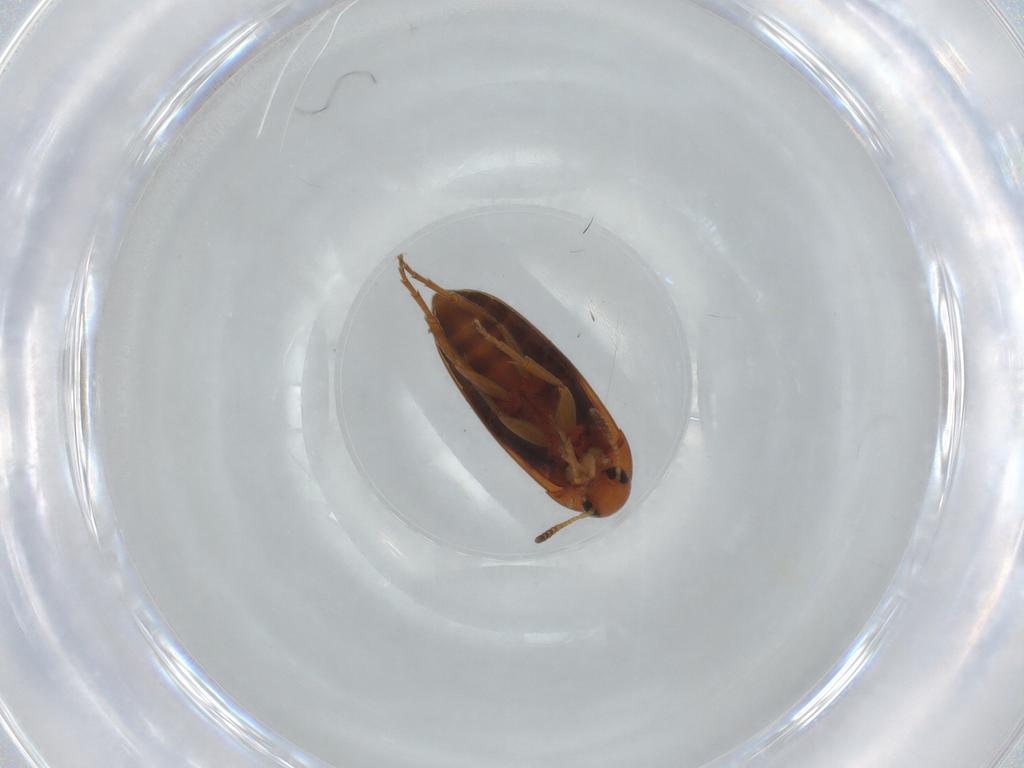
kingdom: Animalia
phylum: Arthropoda
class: Insecta
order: Coleoptera
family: Scraptiidae
